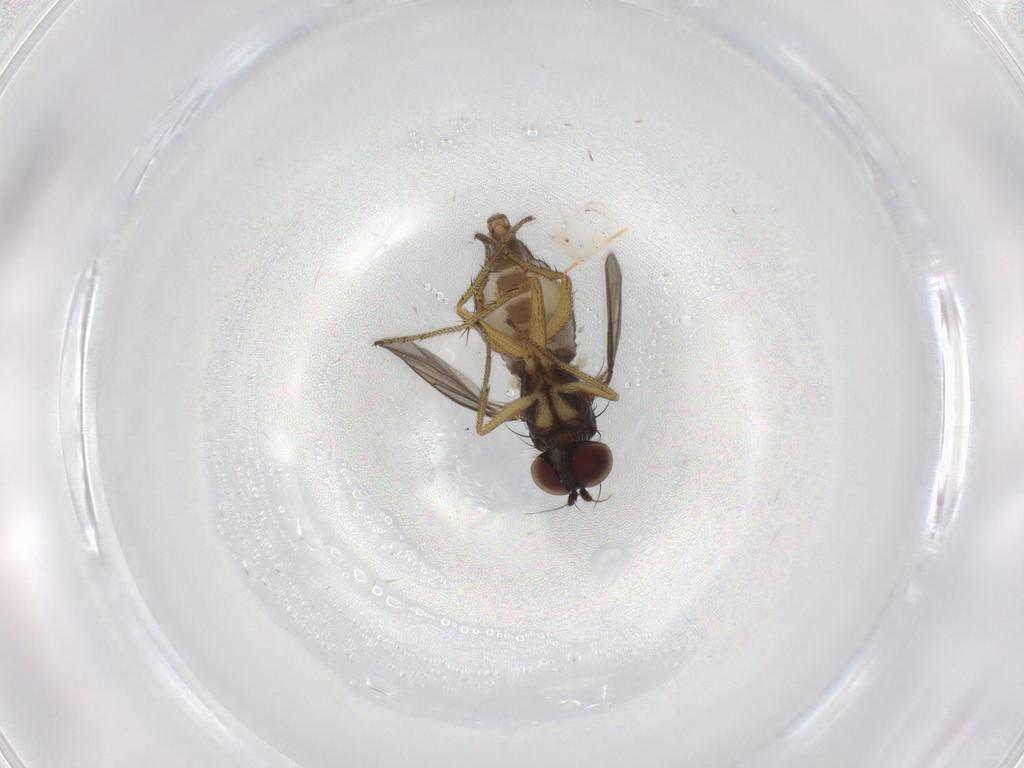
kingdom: Animalia
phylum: Arthropoda
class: Insecta
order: Diptera
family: Dolichopodidae
